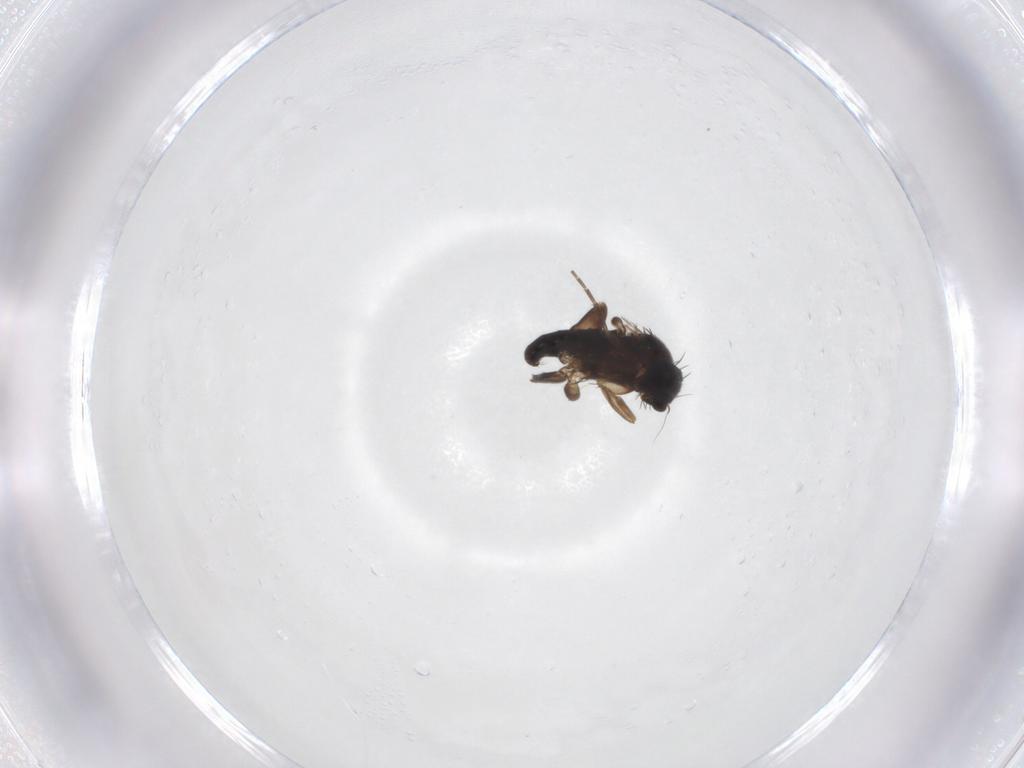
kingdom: Animalia
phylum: Arthropoda
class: Insecta
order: Diptera
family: Phoridae
